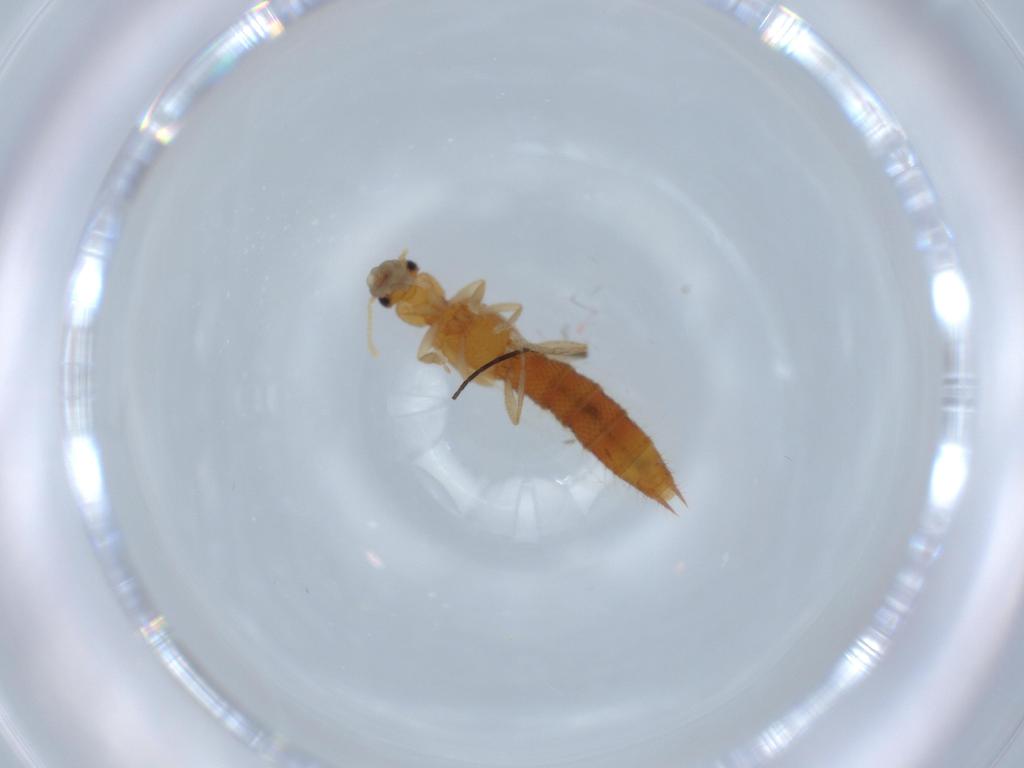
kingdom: Animalia
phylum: Arthropoda
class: Insecta
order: Coleoptera
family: Staphylinidae
